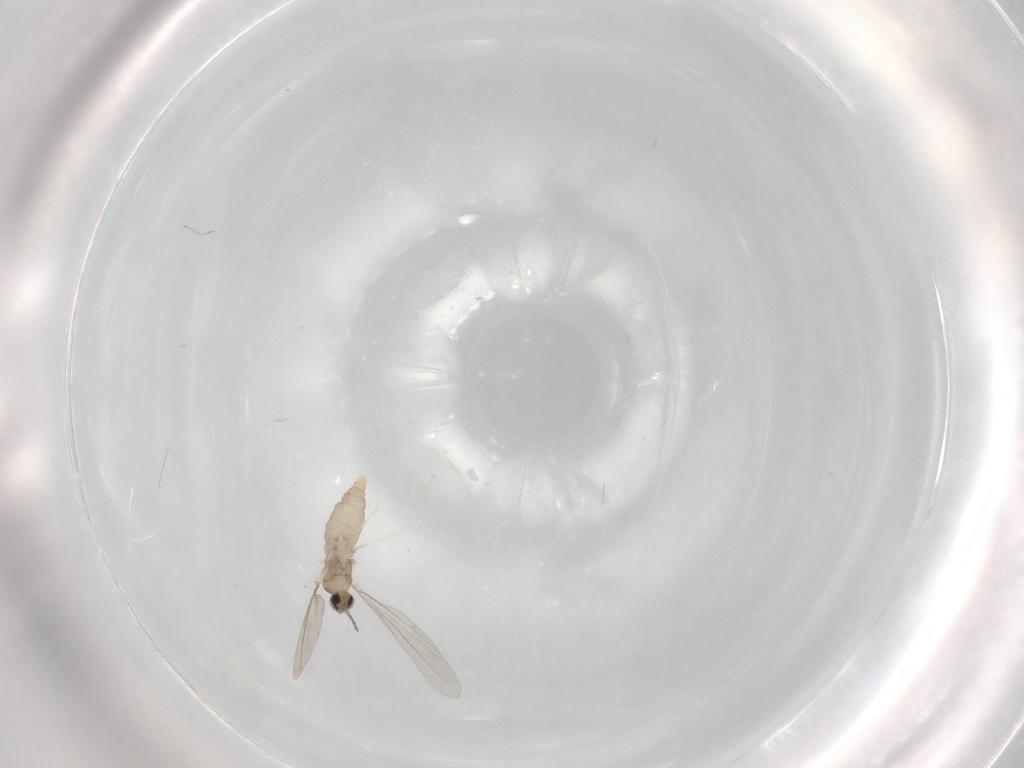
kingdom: Animalia
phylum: Arthropoda
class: Insecta
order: Diptera
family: Cecidomyiidae
